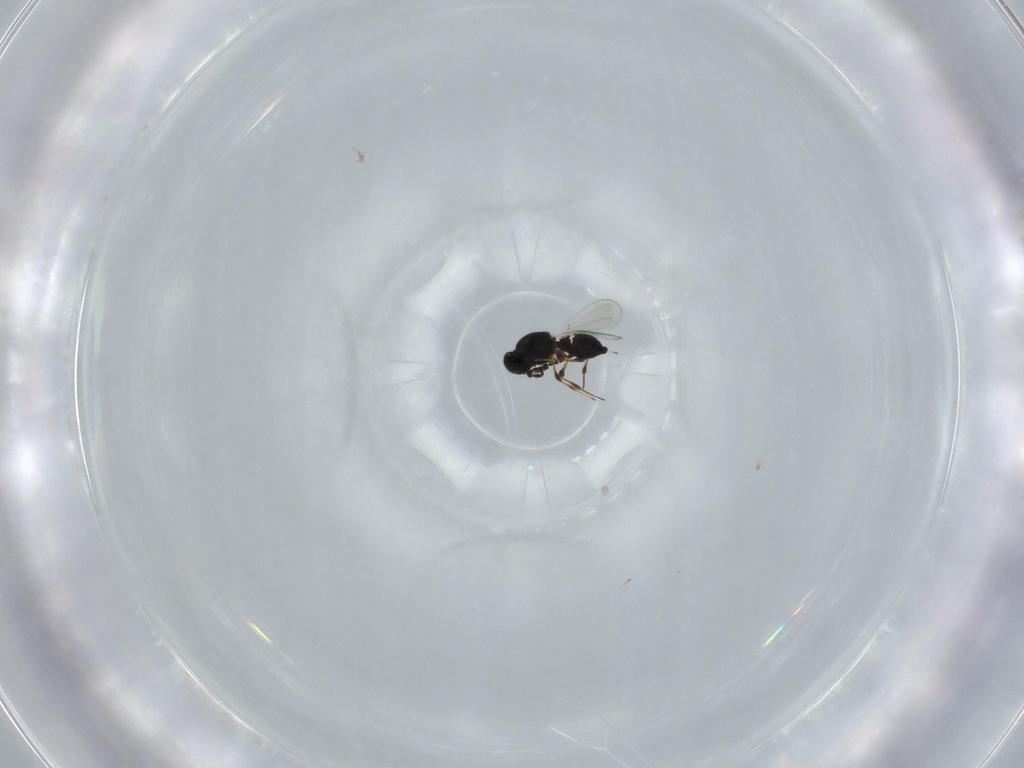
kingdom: Animalia
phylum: Arthropoda
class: Insecta
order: Hymenoptera
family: Platygastridae
